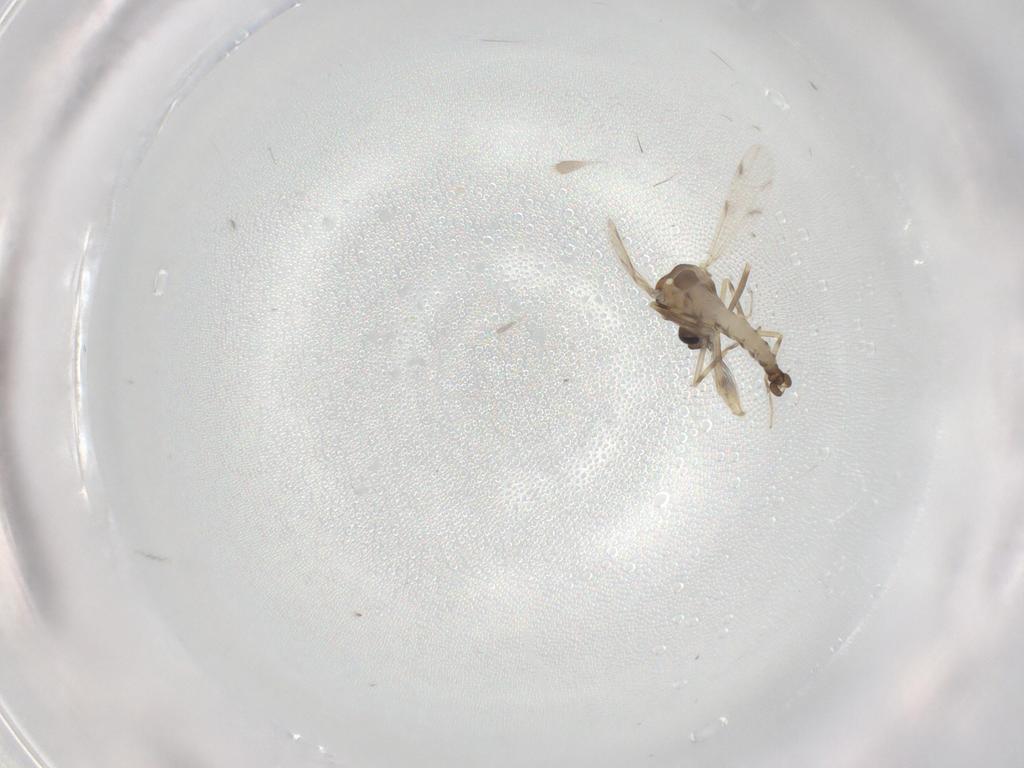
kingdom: Animalia
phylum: Arthropoda
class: Insecta
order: Diptera
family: Ceratopogonidae
